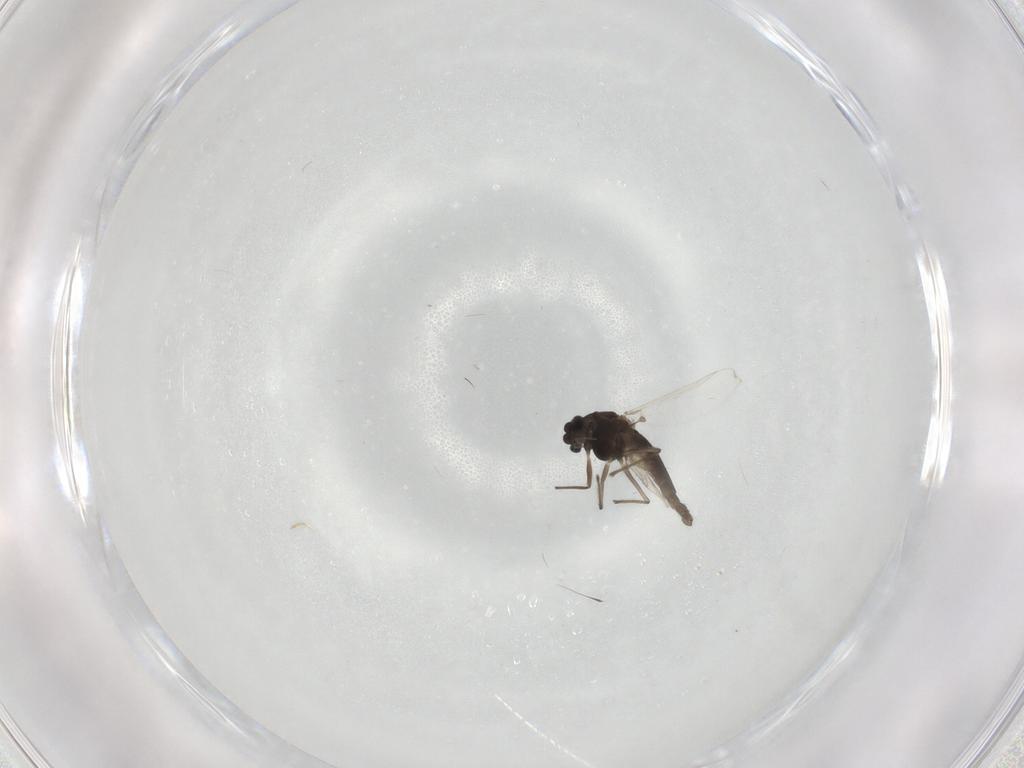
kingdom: Animalia
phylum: Arthropoda
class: Insecta
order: Diptera
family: Chironomidae
